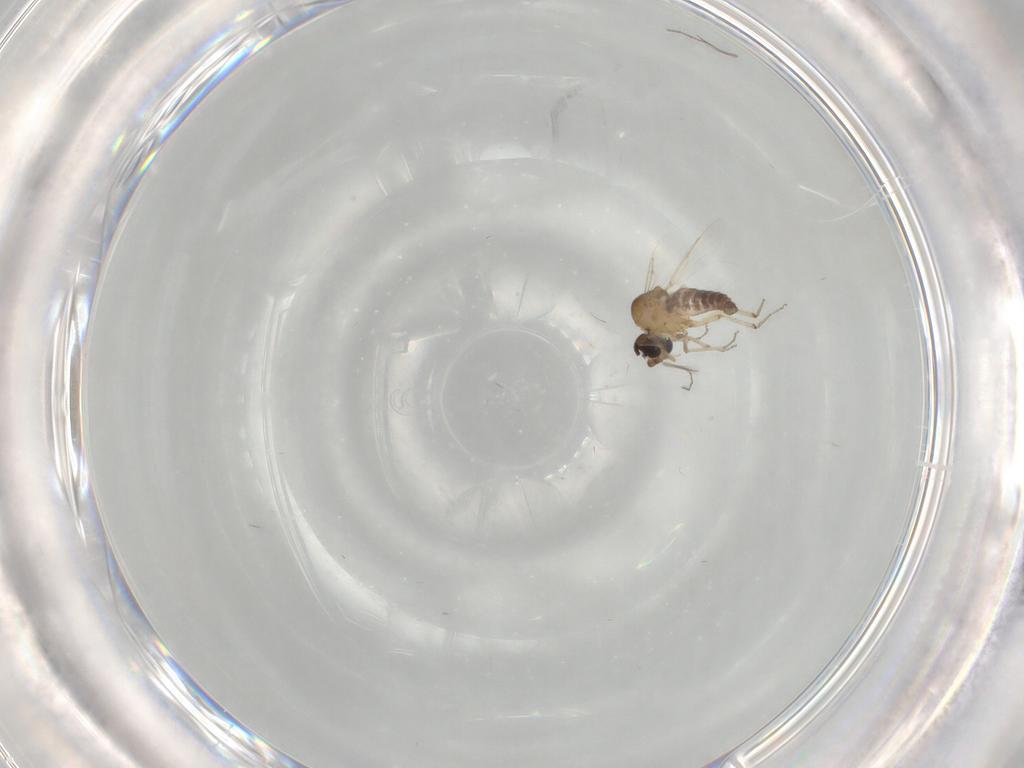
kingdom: Animalia
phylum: Arthropoda
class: Insecta
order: Diptera
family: Ceratopogonidae
